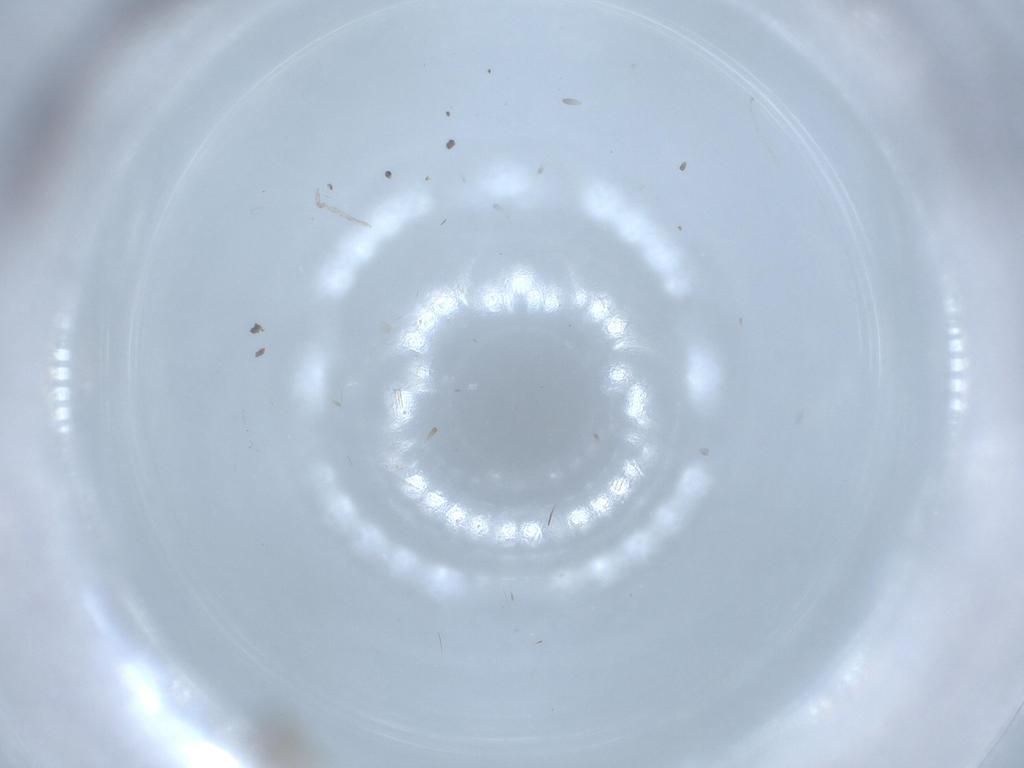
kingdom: Animalia
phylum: Arthropoda
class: Insecta
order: Diptera
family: Cecidomyiidae
